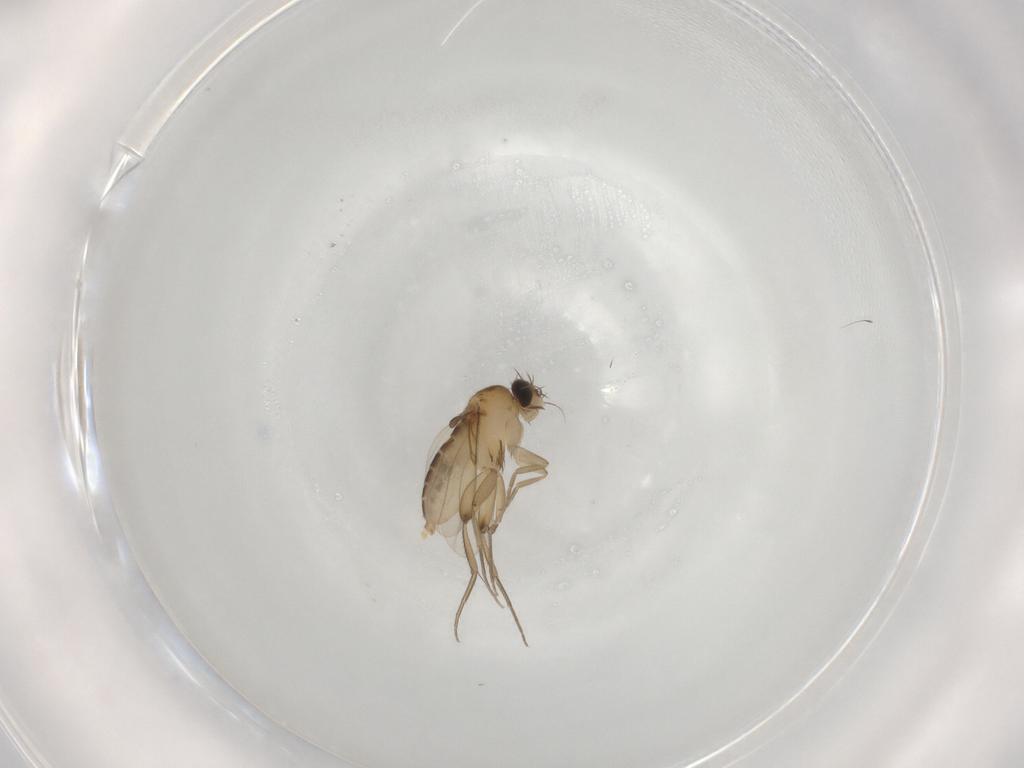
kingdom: Animalia
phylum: Arthropoda
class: Insecta
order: Diptera
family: Phoridae
